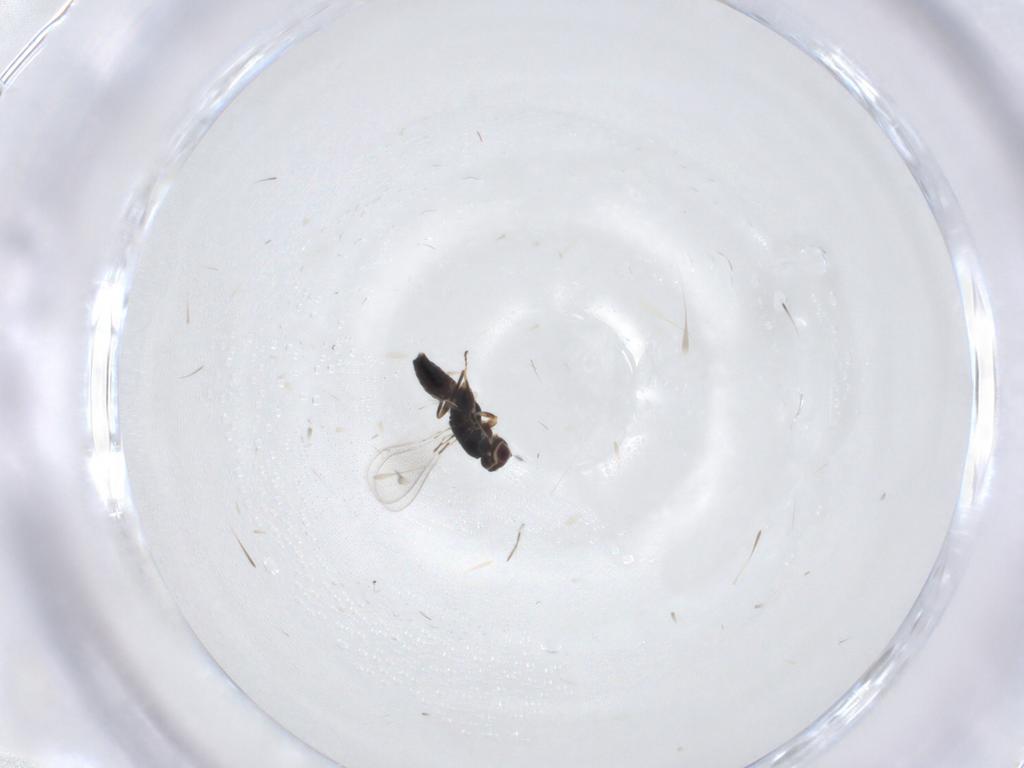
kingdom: Animalia
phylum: Arthropoda
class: Insecta
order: Hymenoptera
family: Eulophidae
